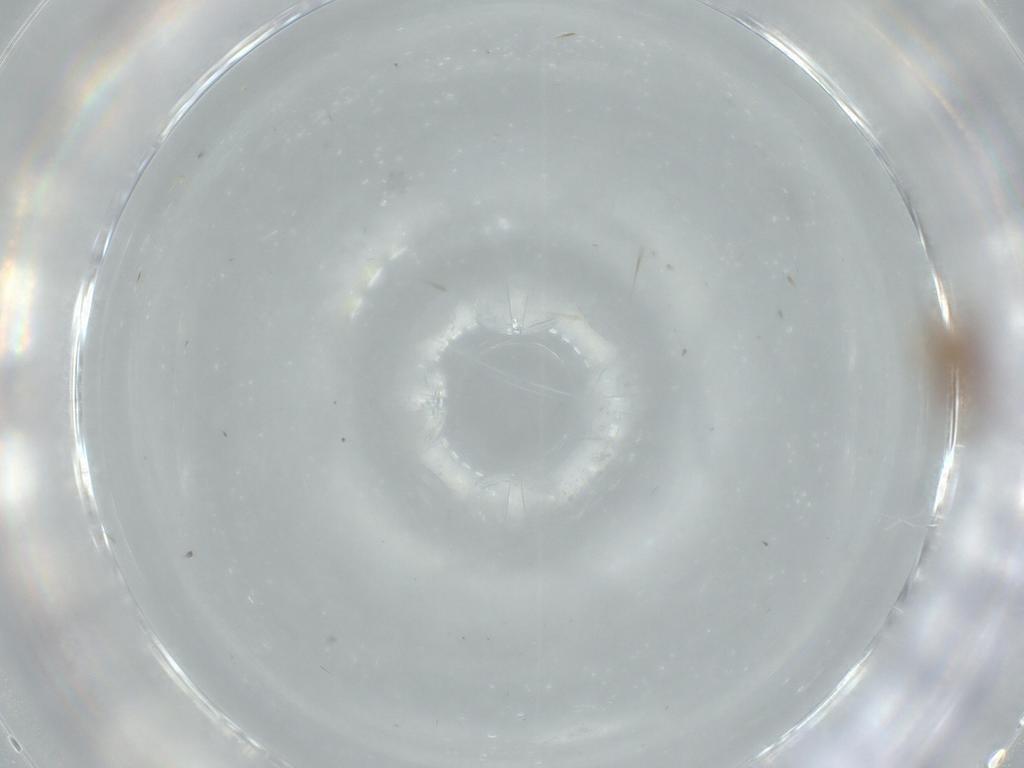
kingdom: Animalia
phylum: Arthropoda
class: Insecta
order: Coleoptera
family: Staphylinidae
